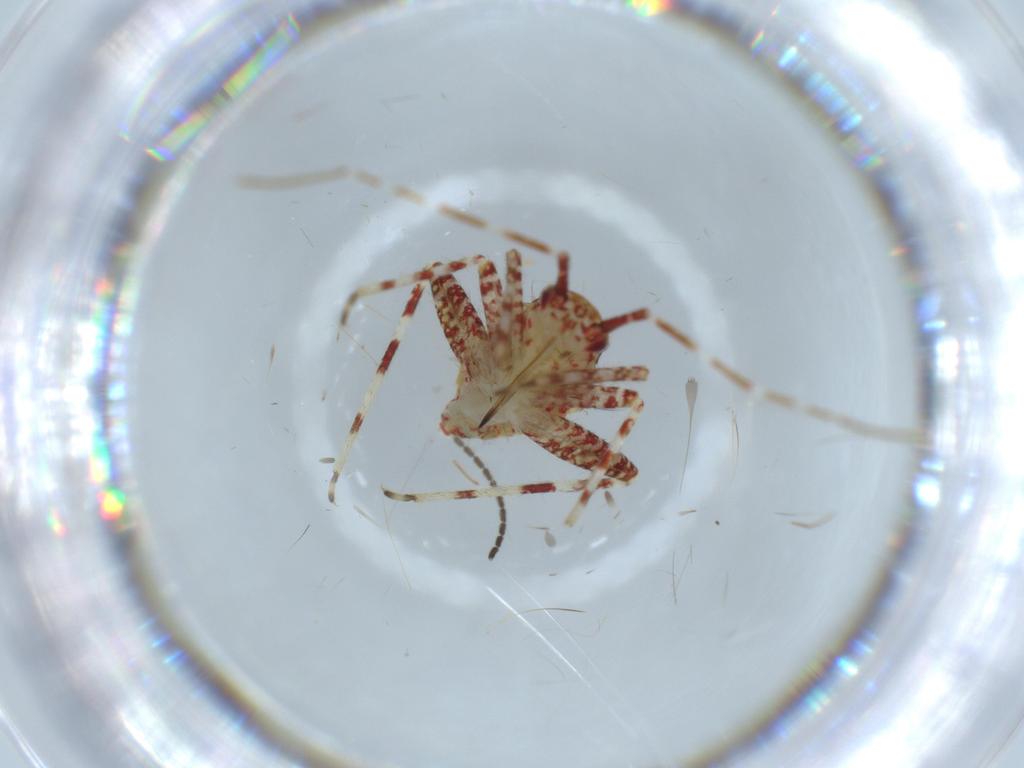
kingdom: Animalia
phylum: Arthropoda
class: Insecta
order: Hemiptera
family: Miridae
